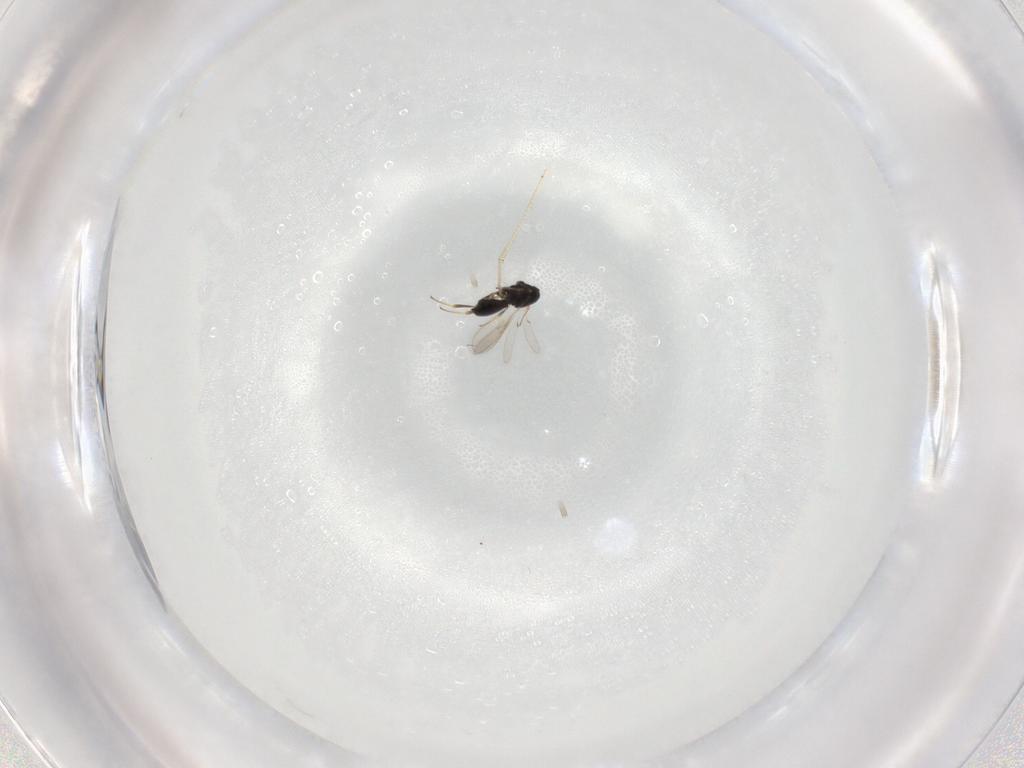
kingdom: Animalia
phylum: Arthropoda
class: Insecta
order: Hymenoptera
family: Scelionidae
